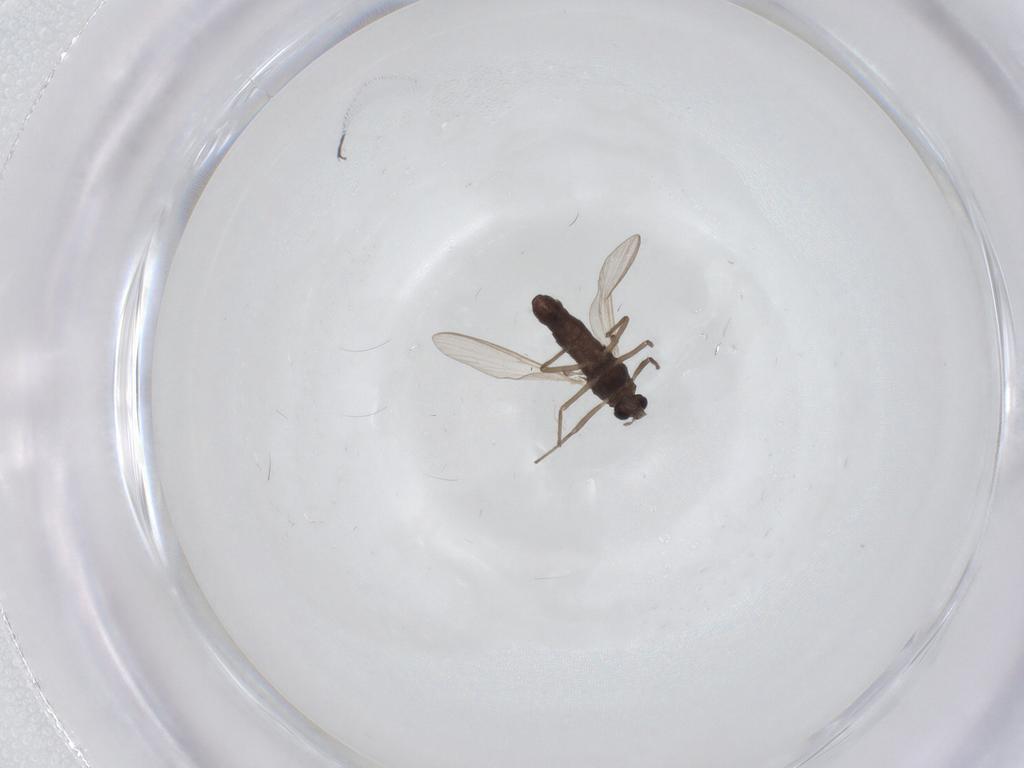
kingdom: Animalia
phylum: Arthropoda
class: Insecta
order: Diptera
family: Chironomidae
